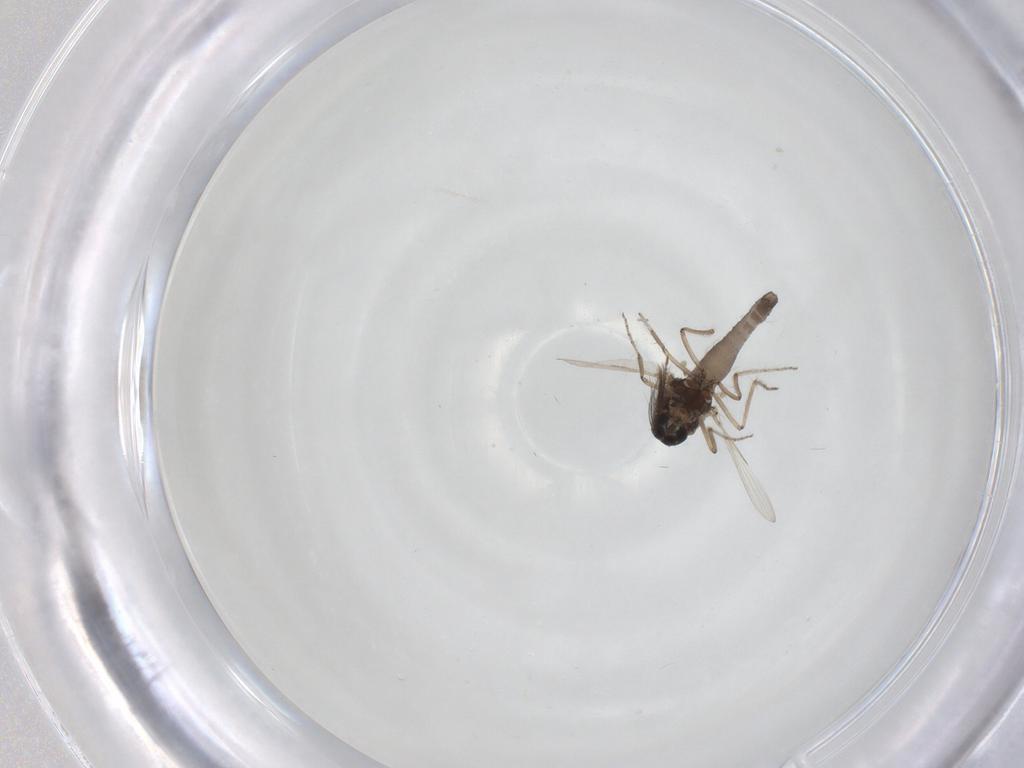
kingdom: Animalia
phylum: Arthropoda
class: Insecta
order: Diptera
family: Ceratopogonidae
